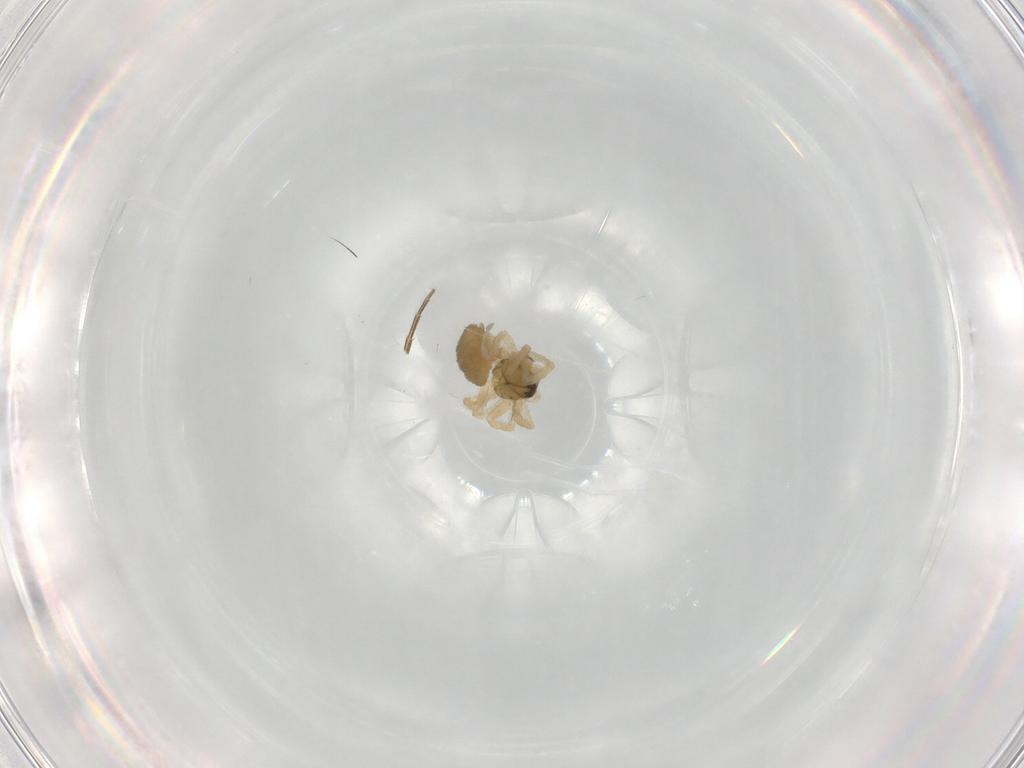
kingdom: Animalia
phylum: Arthropoda
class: Arachnida
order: Araneae
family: Linyphiidae
